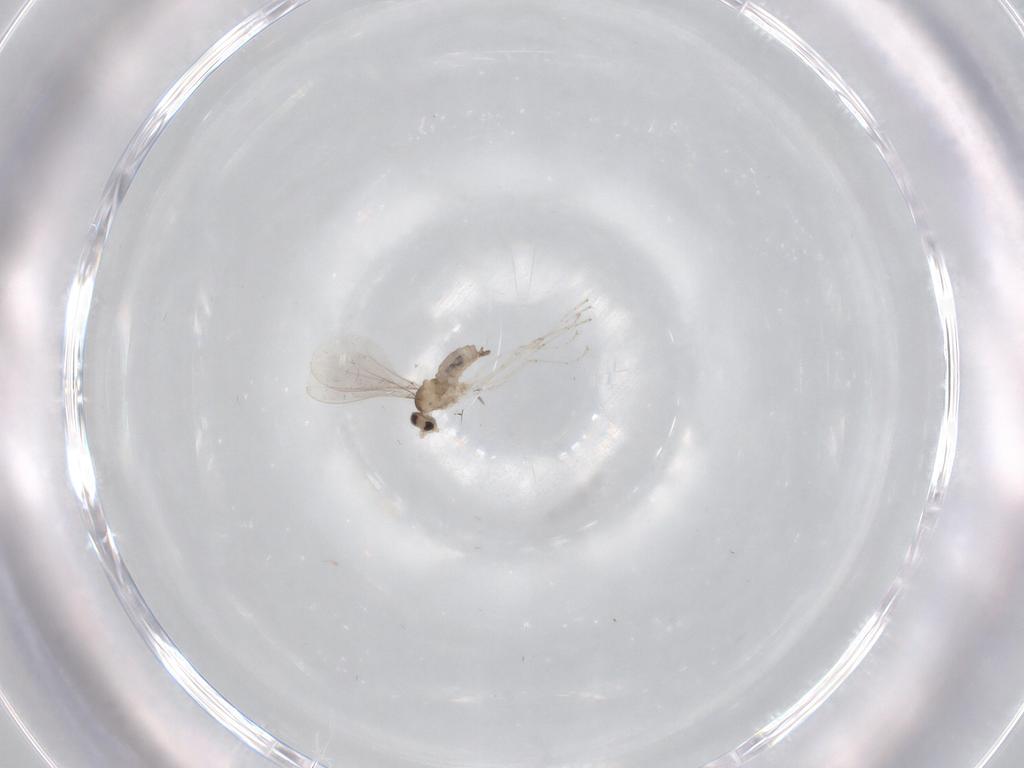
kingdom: Animalia
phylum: Arthropoda
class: Insecta
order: Diptera
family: Cecidomyiidae
